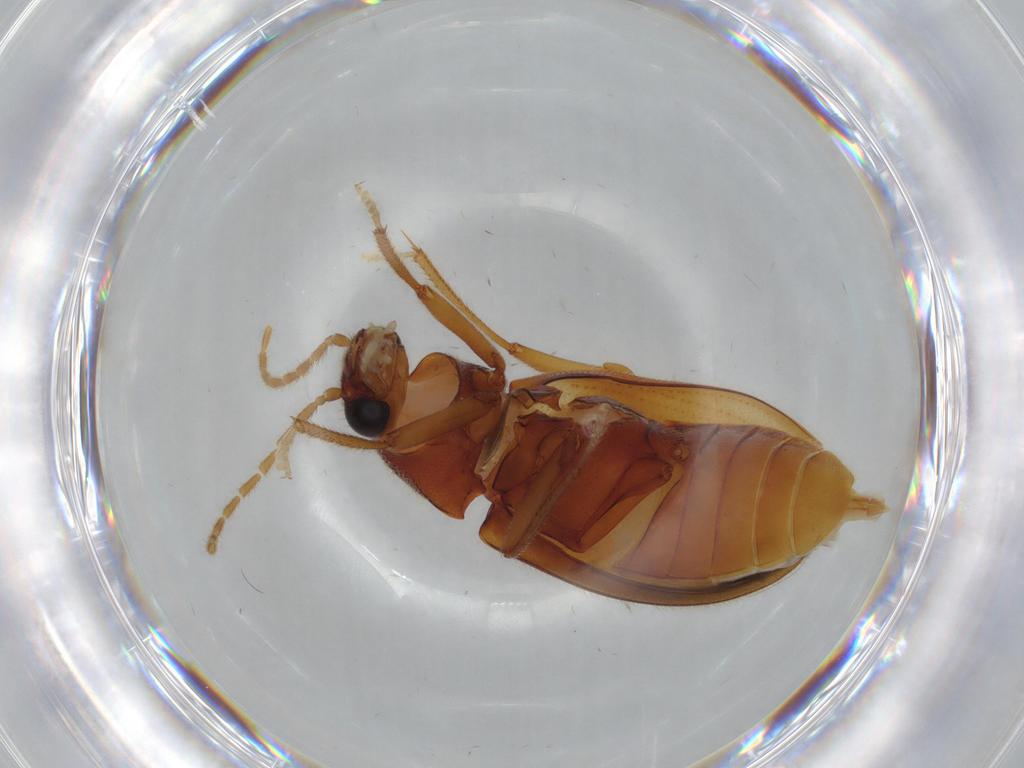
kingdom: Animalia
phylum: Arthropoda
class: Insecta
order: Coleoptera
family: Ptilodactylidae
